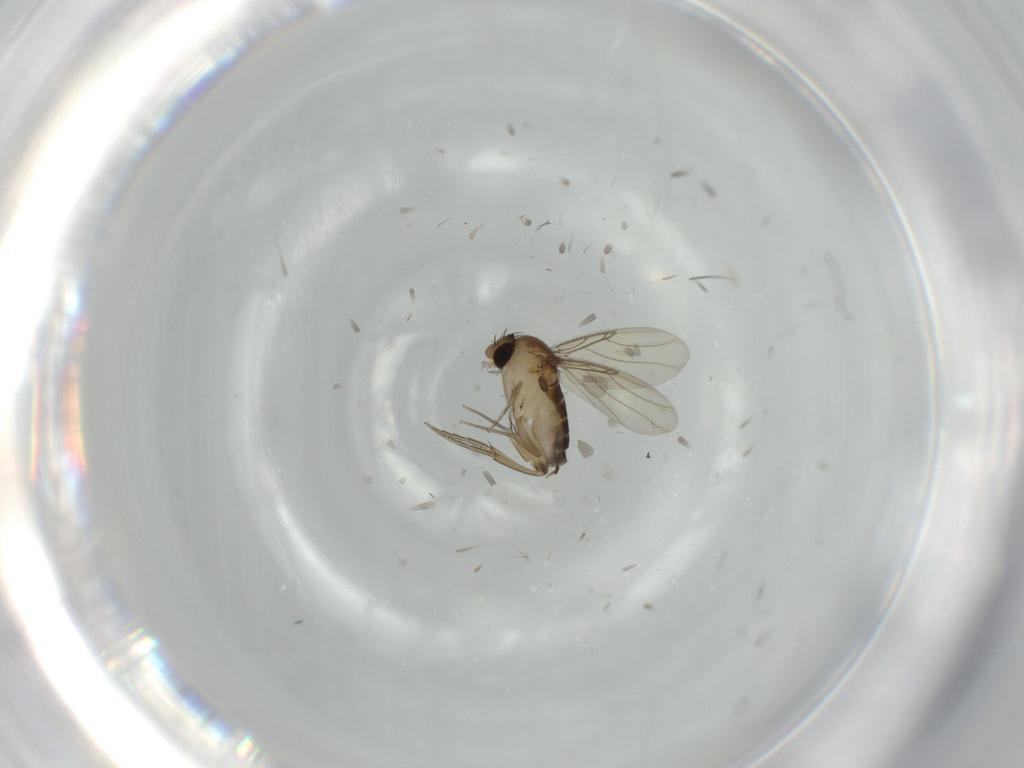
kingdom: Animalia
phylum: Arthropoda
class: Insecta
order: Diptera
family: Phoridae
